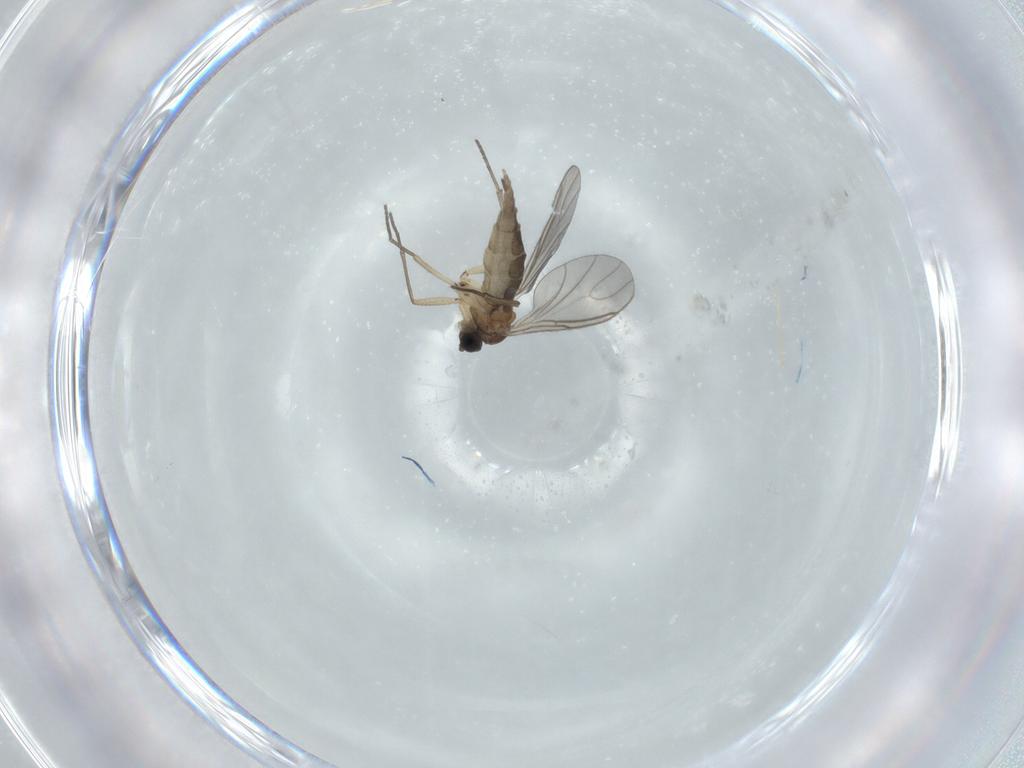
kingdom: Animalia
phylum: Arthropoda
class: Insecta
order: Diptera
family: Sciaridae
